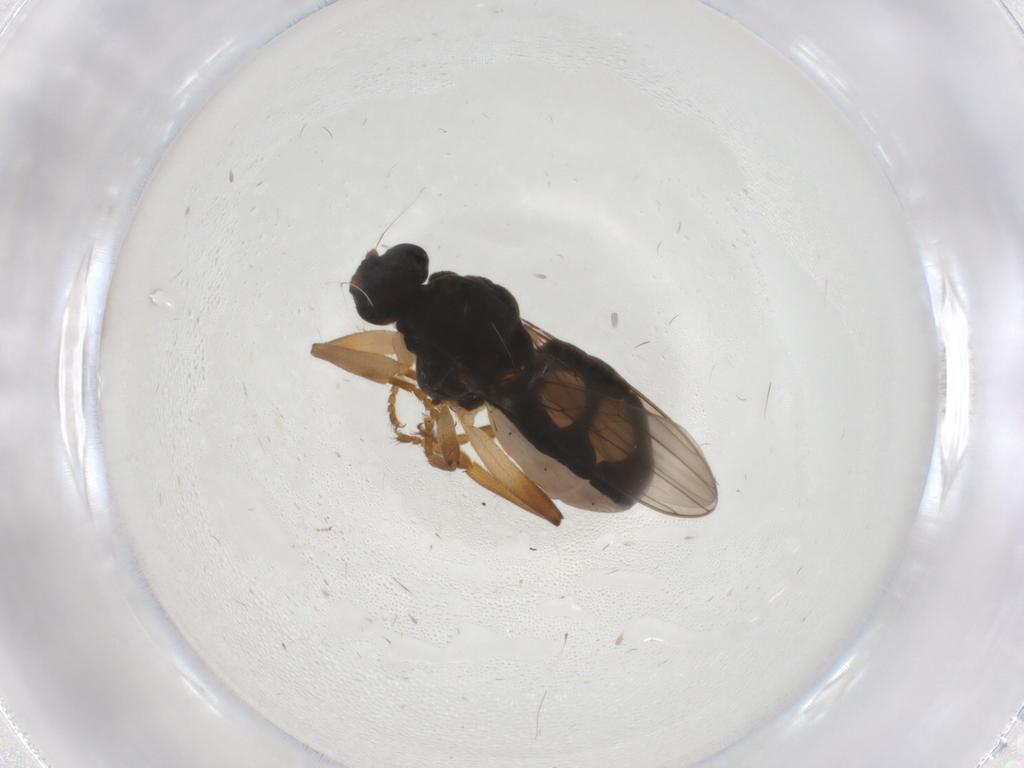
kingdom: Animalia
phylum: Arthropoda
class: Insecta
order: Diptera
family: Sphaeroceridae
